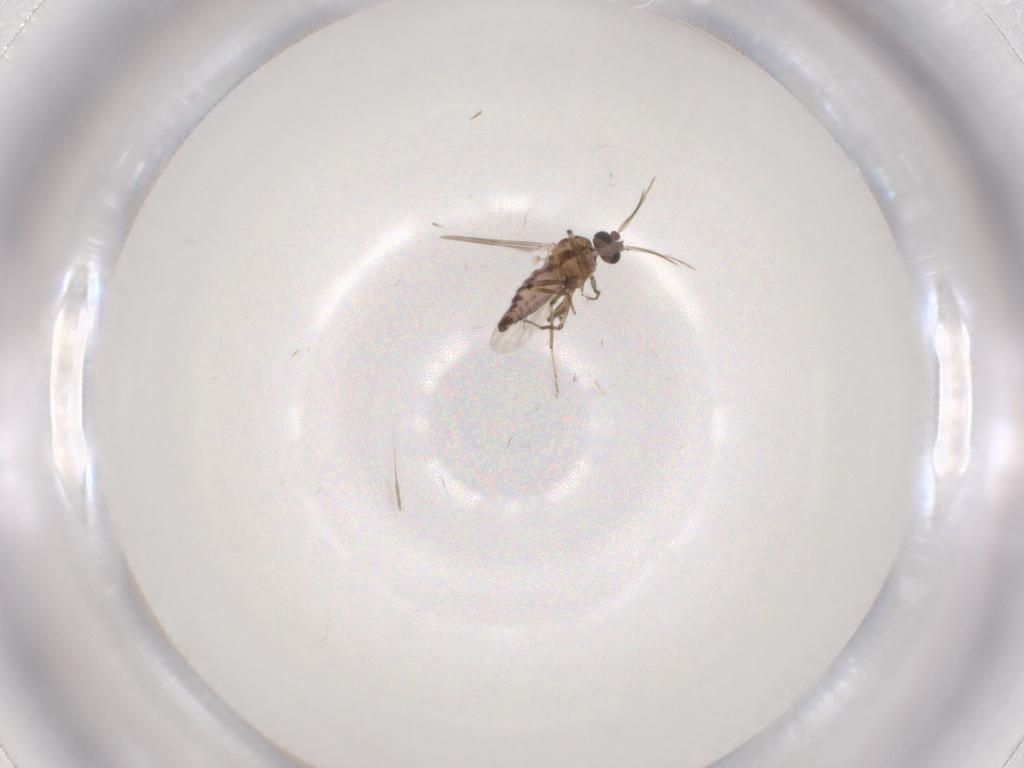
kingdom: Animalia
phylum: Arthropoda
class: Insecta
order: Diptera
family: Ceratopogonidae
